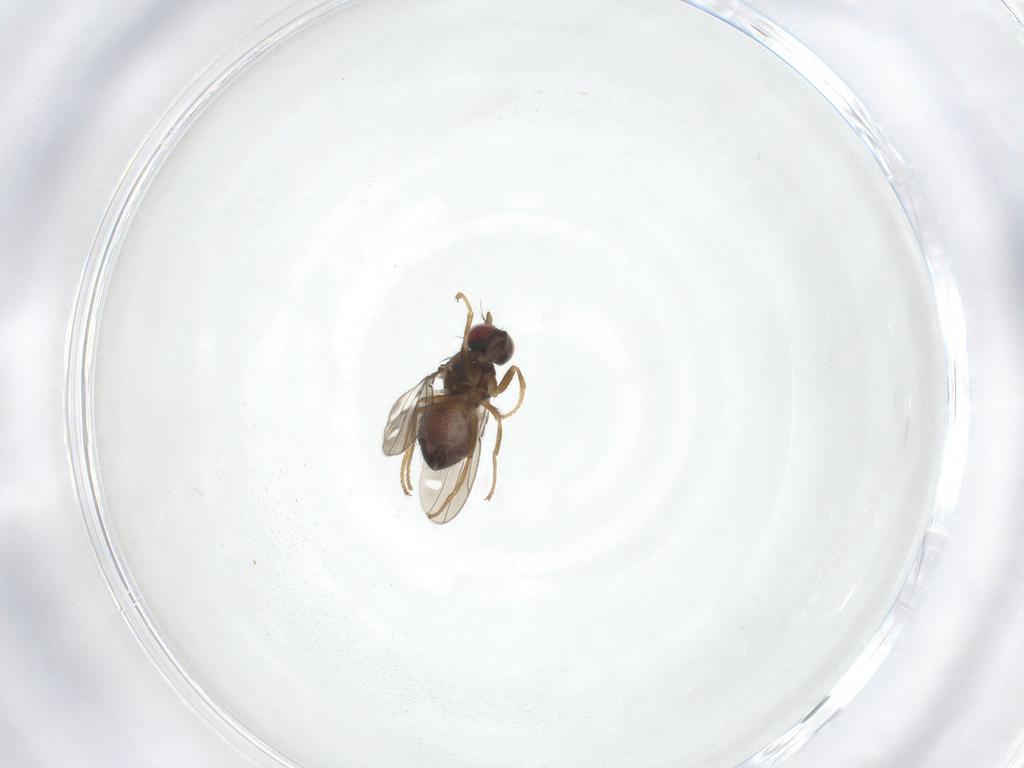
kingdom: Animalia
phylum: Arthropoda
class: Insecta
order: Diptera
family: Ephydridae
